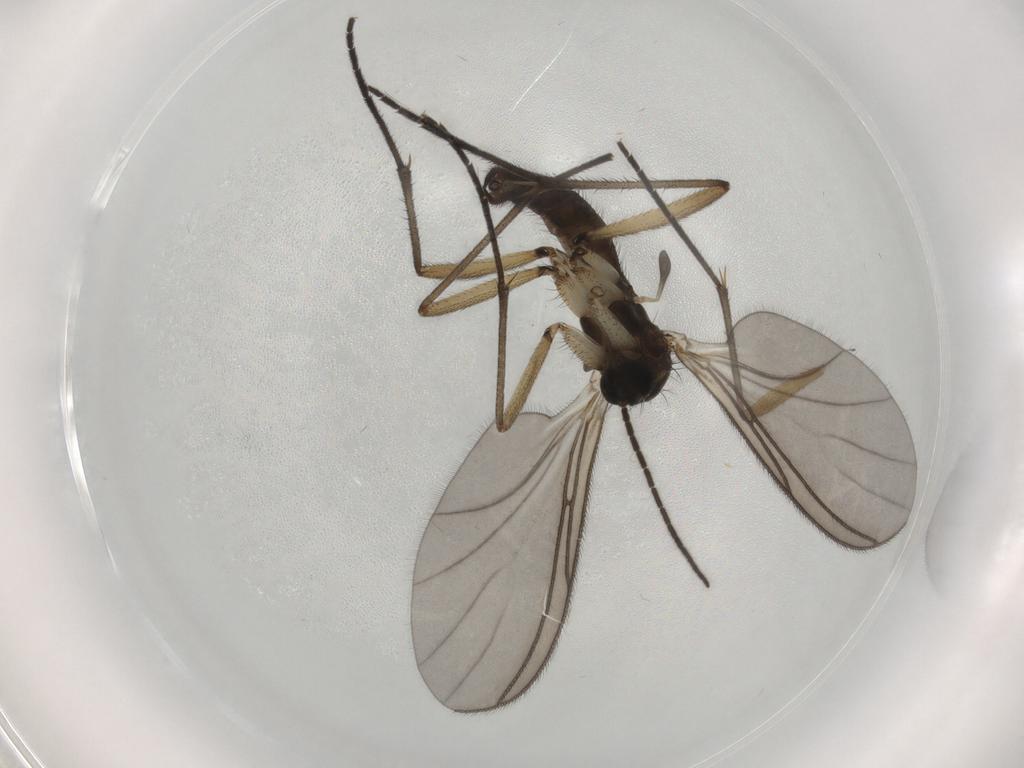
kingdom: Animalia
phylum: Arthropoda
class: Insecta
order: Diptera
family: Sciaridae
